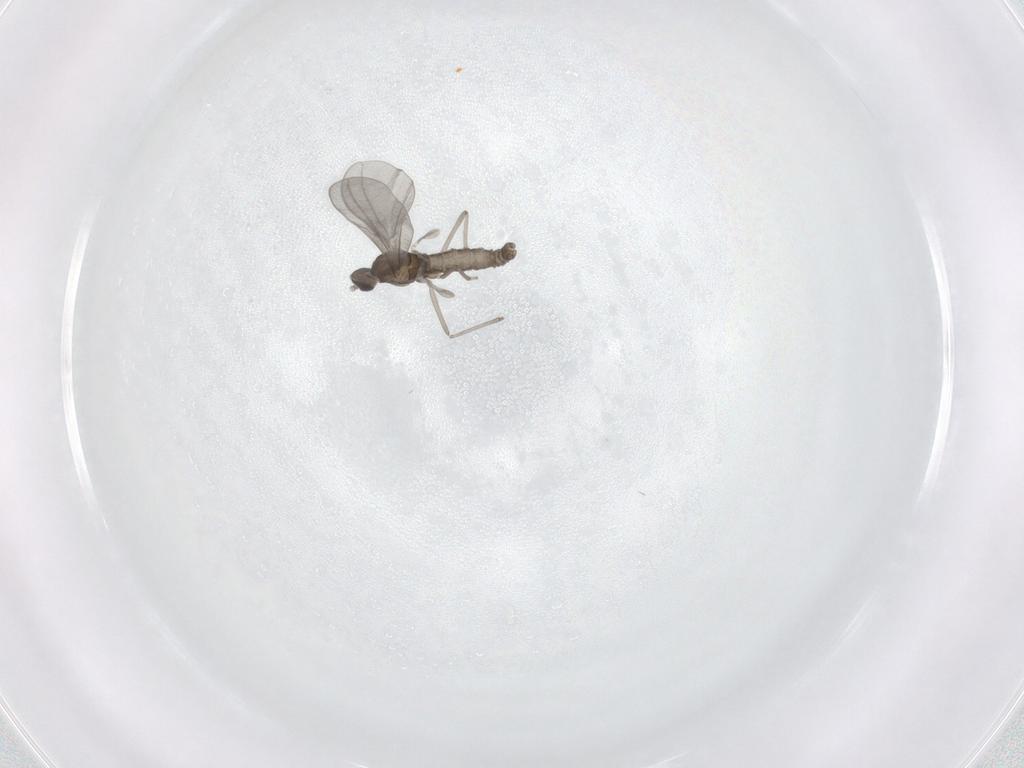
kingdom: Animalia
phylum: Arthropoda
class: Insecta
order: Diptera
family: Cecidomyiidae
